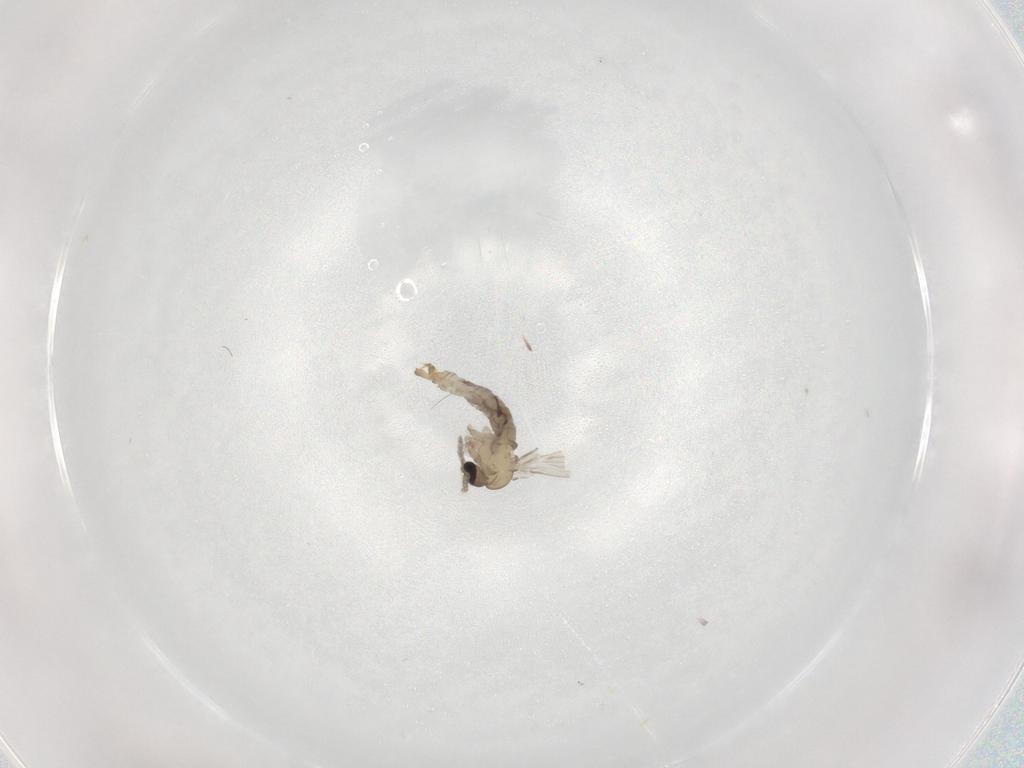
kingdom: Animalia
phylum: Arthropoda
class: Insecta
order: Diptera
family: Psychodidae
